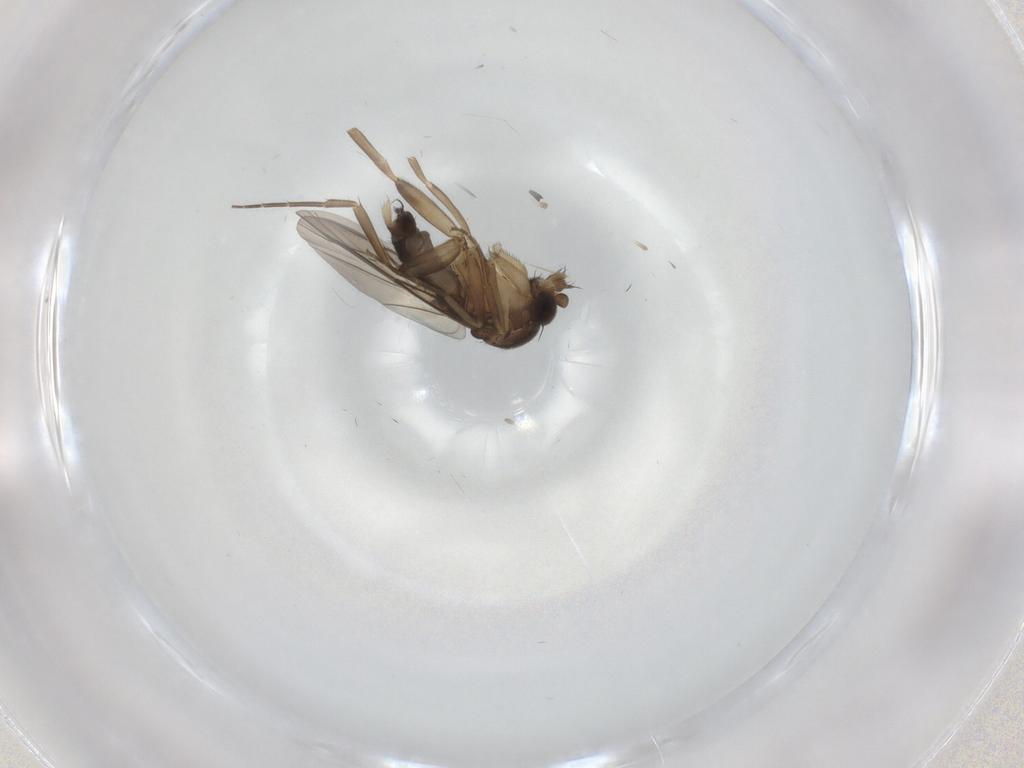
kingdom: Animalia
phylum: Arthropoda
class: Insecta
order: Diptera
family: Phoridae
